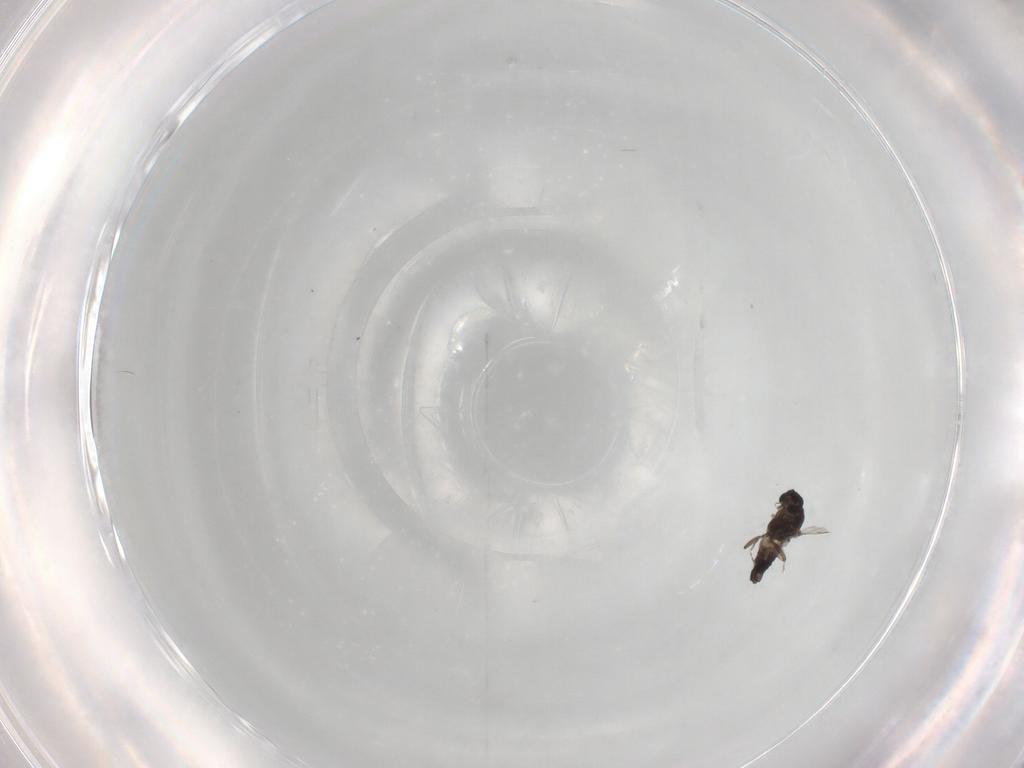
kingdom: Animalia
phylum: Arthropoda
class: Insecta
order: Diptera
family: Ceratopogonidae
